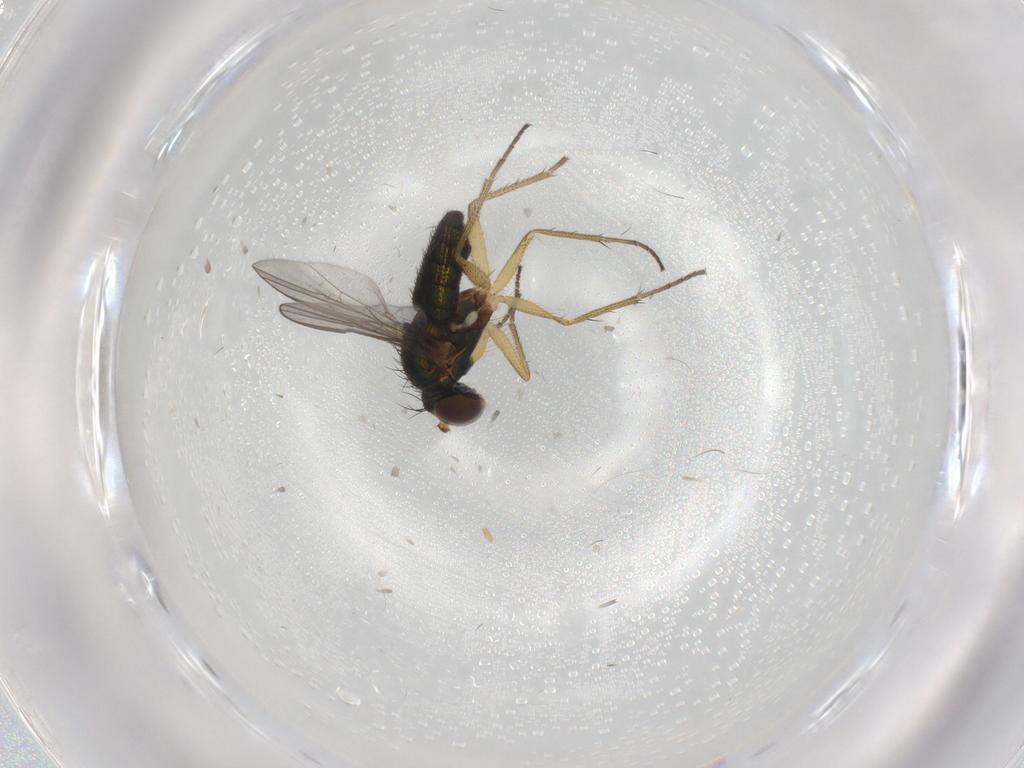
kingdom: Animalia
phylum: Arthropoda
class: Insecta
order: Diptera
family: Dolichopodidae
